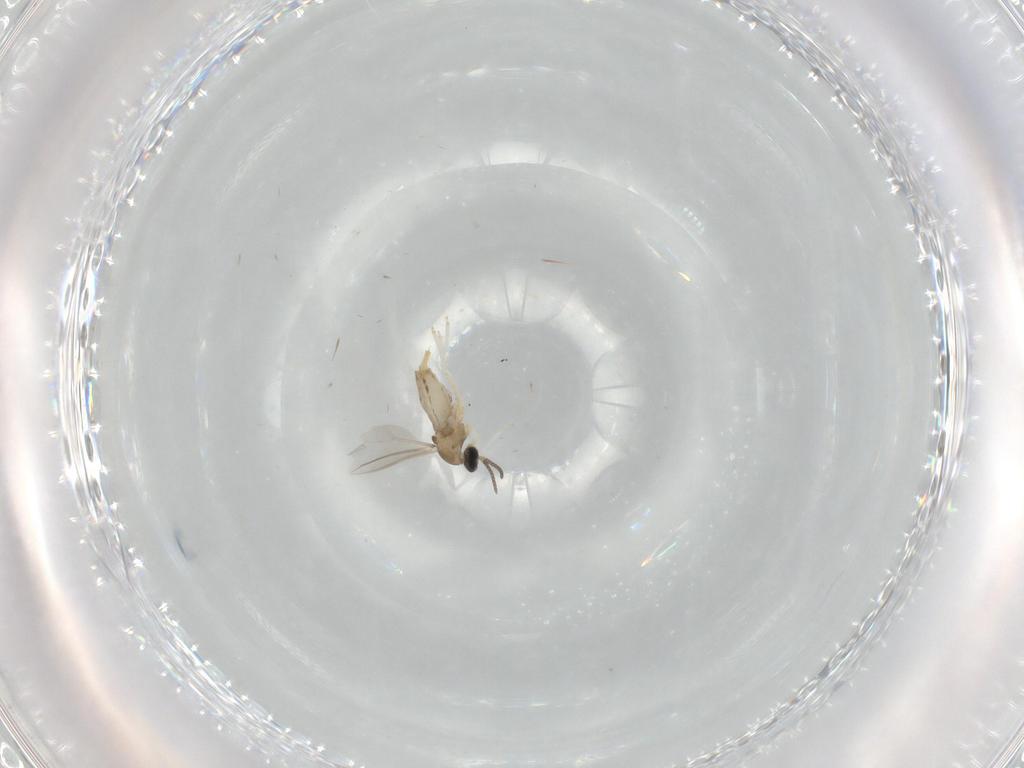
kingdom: Animalia
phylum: Arthropoda
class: Insecta
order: Diptera
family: Cecidomyiidae
